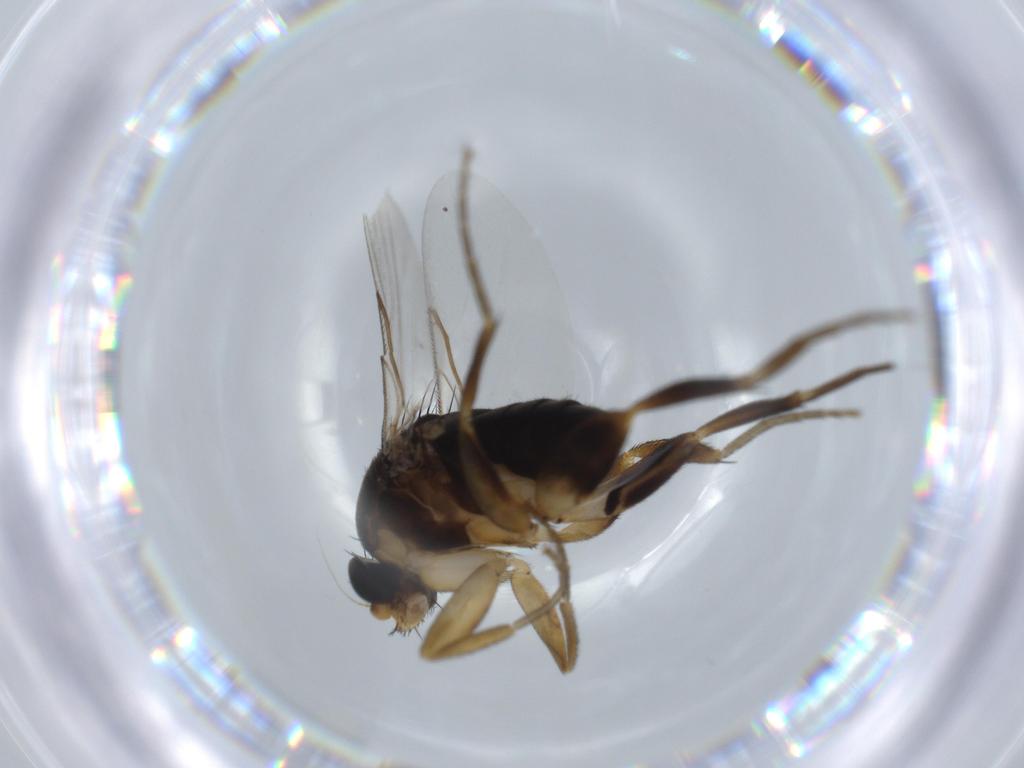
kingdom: Animalia
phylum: Arthropoda
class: Insecta
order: Diptera
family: Phoridae
